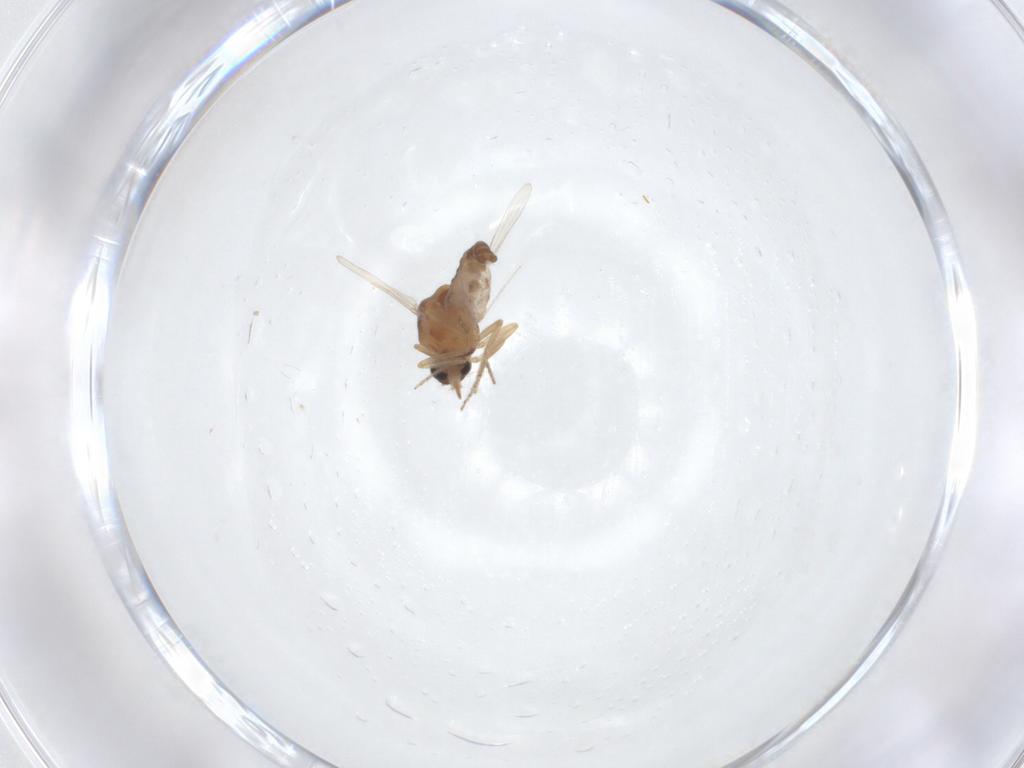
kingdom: Animalia
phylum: Arthropoda
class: Insecta
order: Diptera
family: Ceratopogonidae
